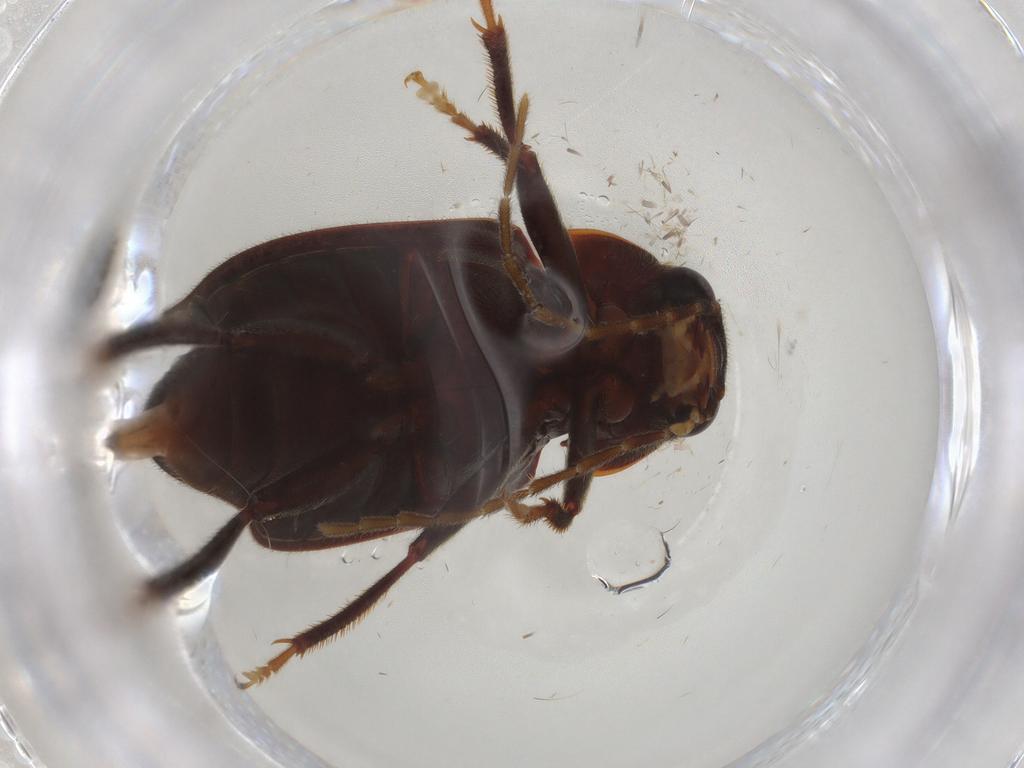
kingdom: Animalia
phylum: Arthropoda
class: Insecta
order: Coleoptera
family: Ptilodactylidae
